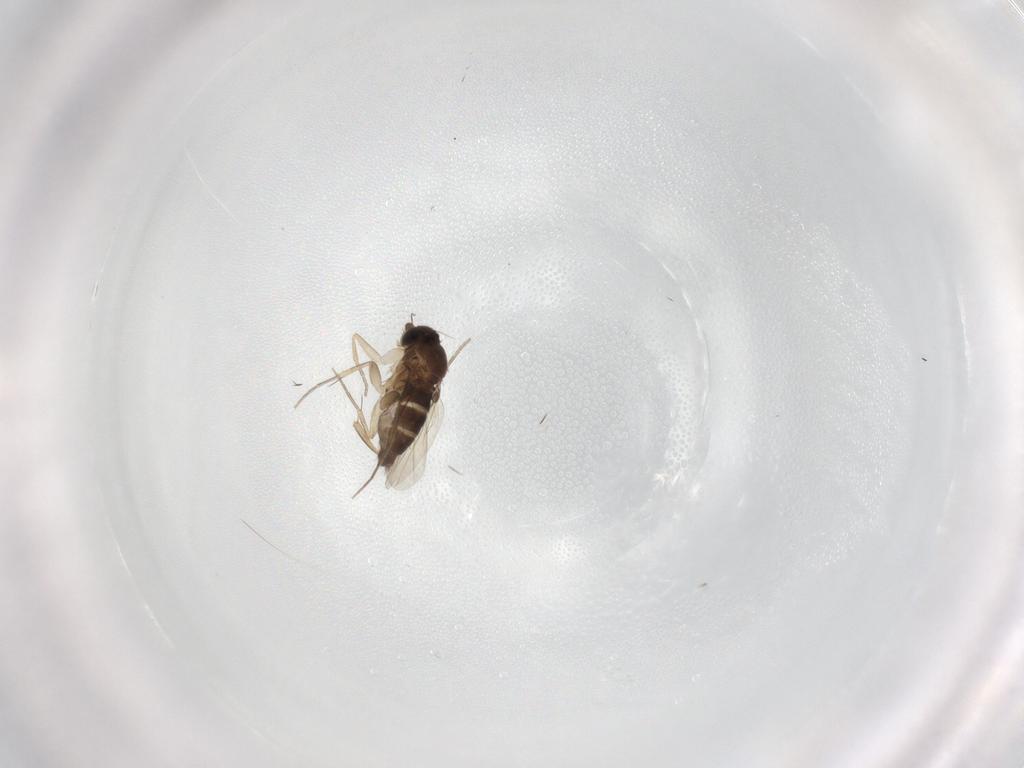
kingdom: Animalia
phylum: Arthropoda
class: Insecta
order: Diptera
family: Phoridae
